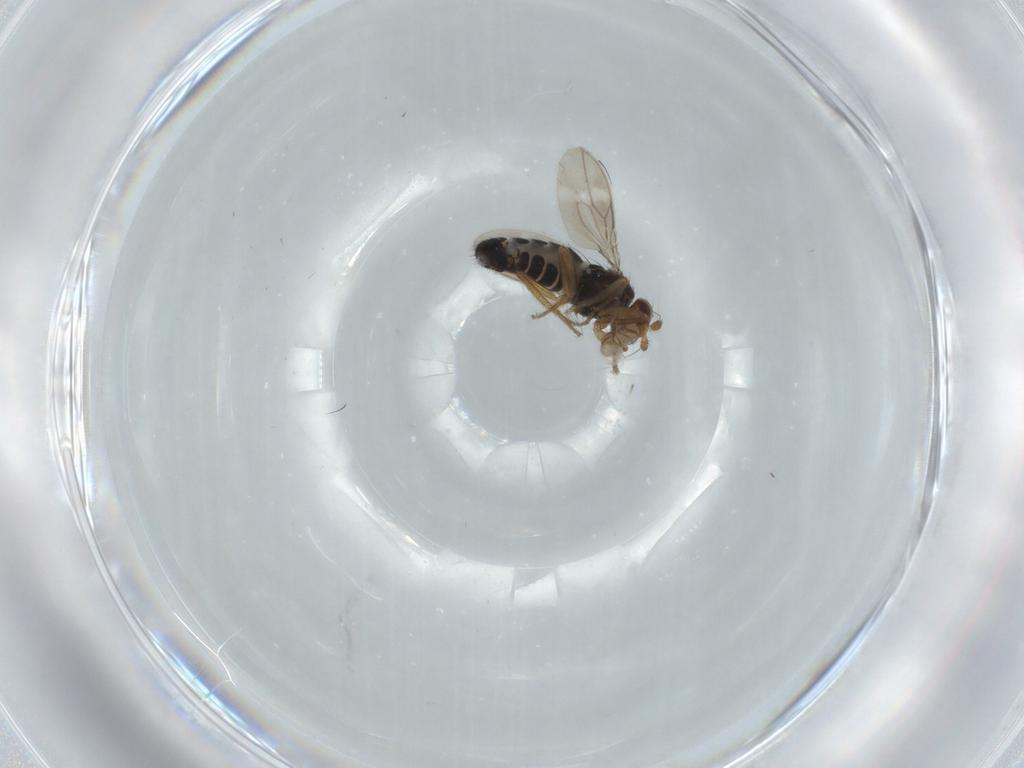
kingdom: Animalia
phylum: Arthropoda
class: Insecta
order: Diptera
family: Sphaeroceridae
